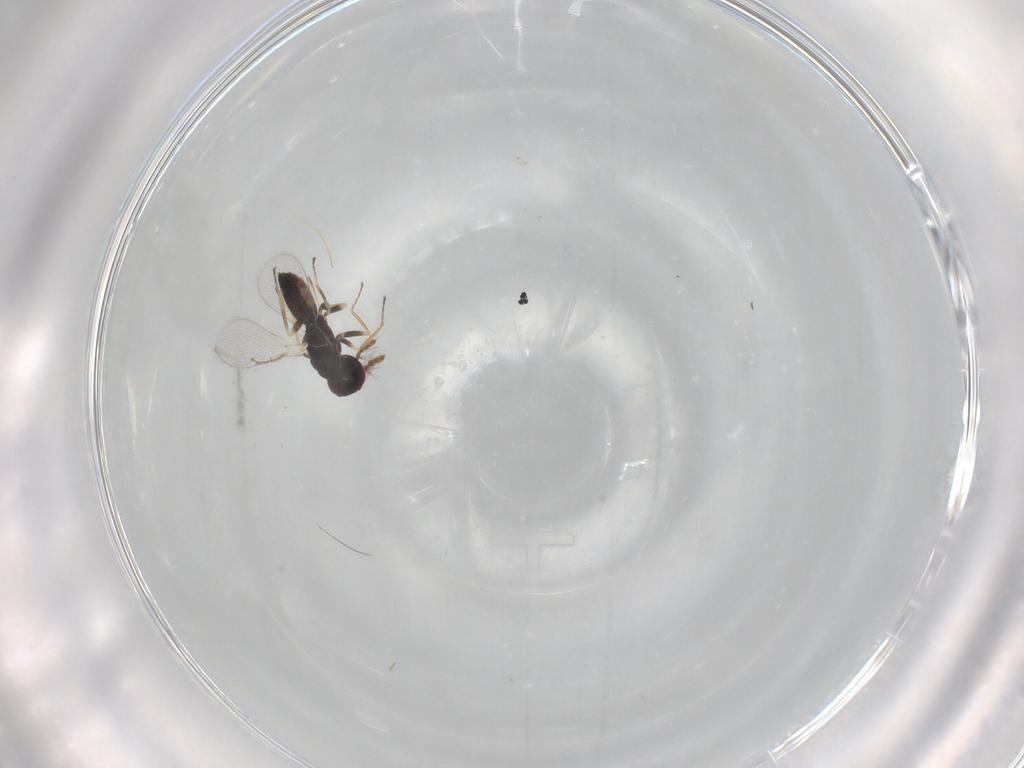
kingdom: Animalia
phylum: Arthropoda
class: Insecta
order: Hymenoptera
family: Eulophidae
